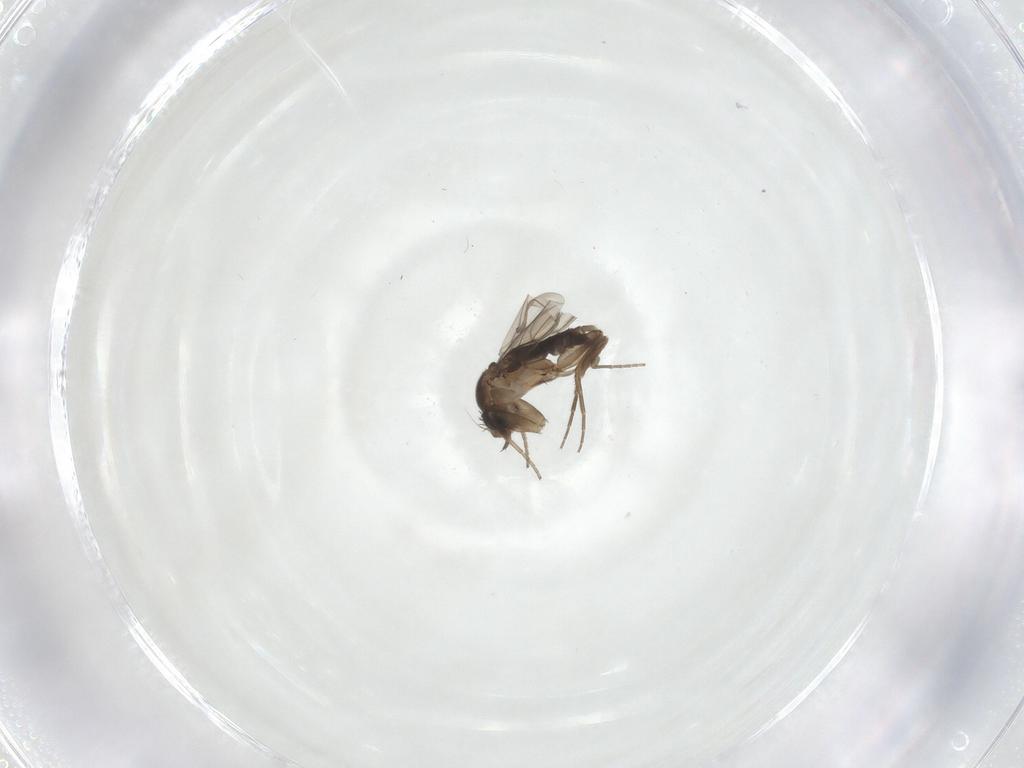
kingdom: Animalia
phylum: Arthropoda
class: Insecta
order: Diptera
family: Phoridae
